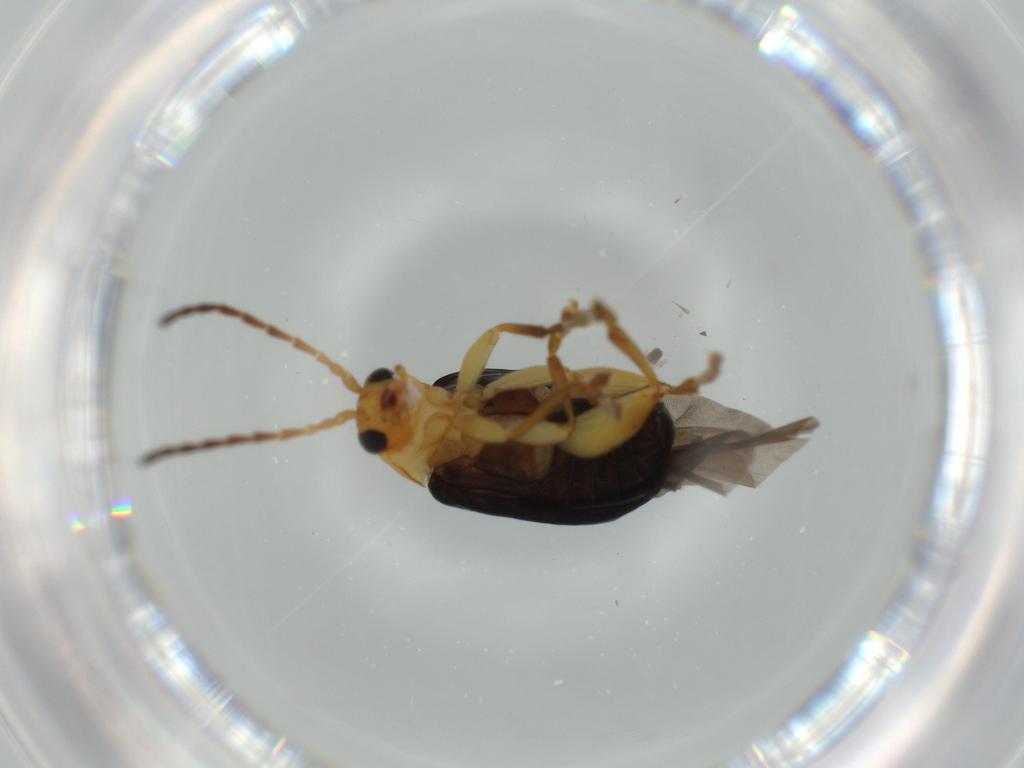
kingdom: Animalia
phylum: Arthropoda
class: Insecta
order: Coleoptera
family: Chrysomelidae
